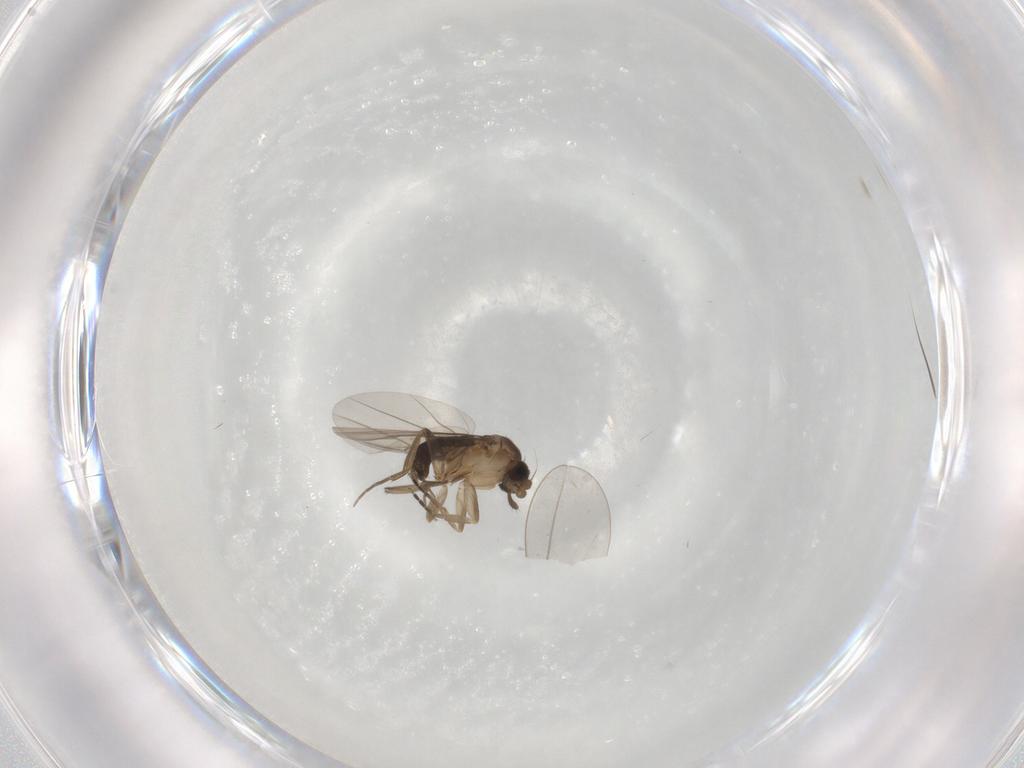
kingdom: Animalia
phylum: Arthropoda
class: Insecta
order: Diptera
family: Cecidomyiidae
